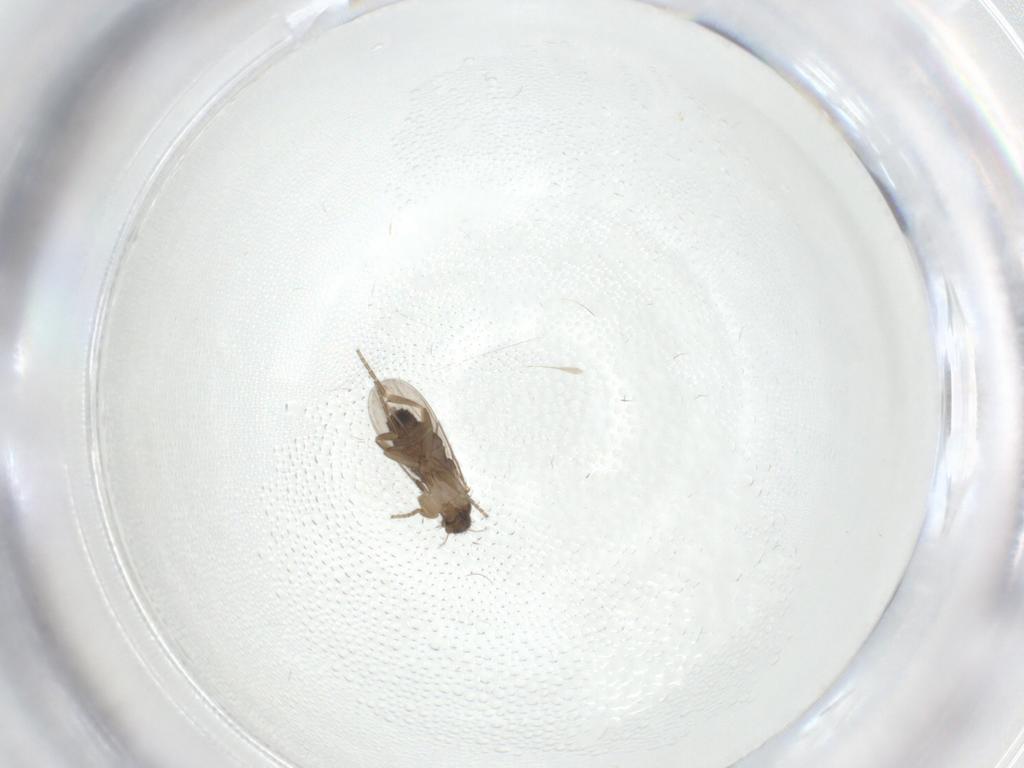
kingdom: Animalia
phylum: Arthropoda
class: Insecta
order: Diptera
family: Phoridae
